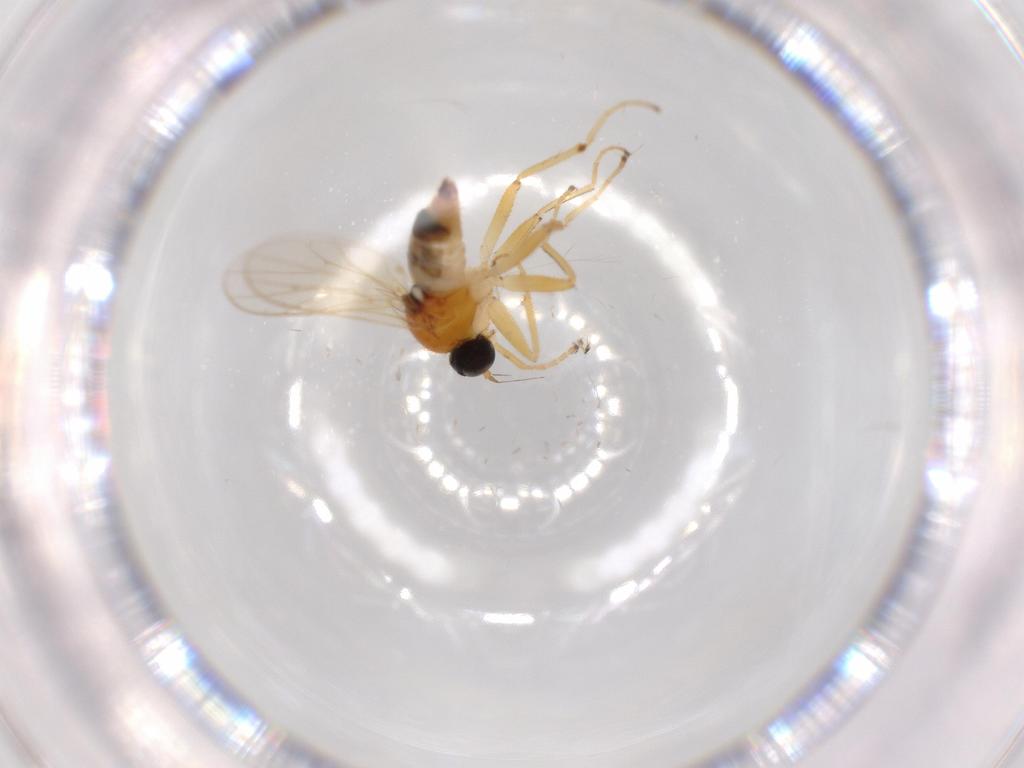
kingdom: Animalia
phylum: Arthropoda
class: Insecta
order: Diptera
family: Hybotidae
